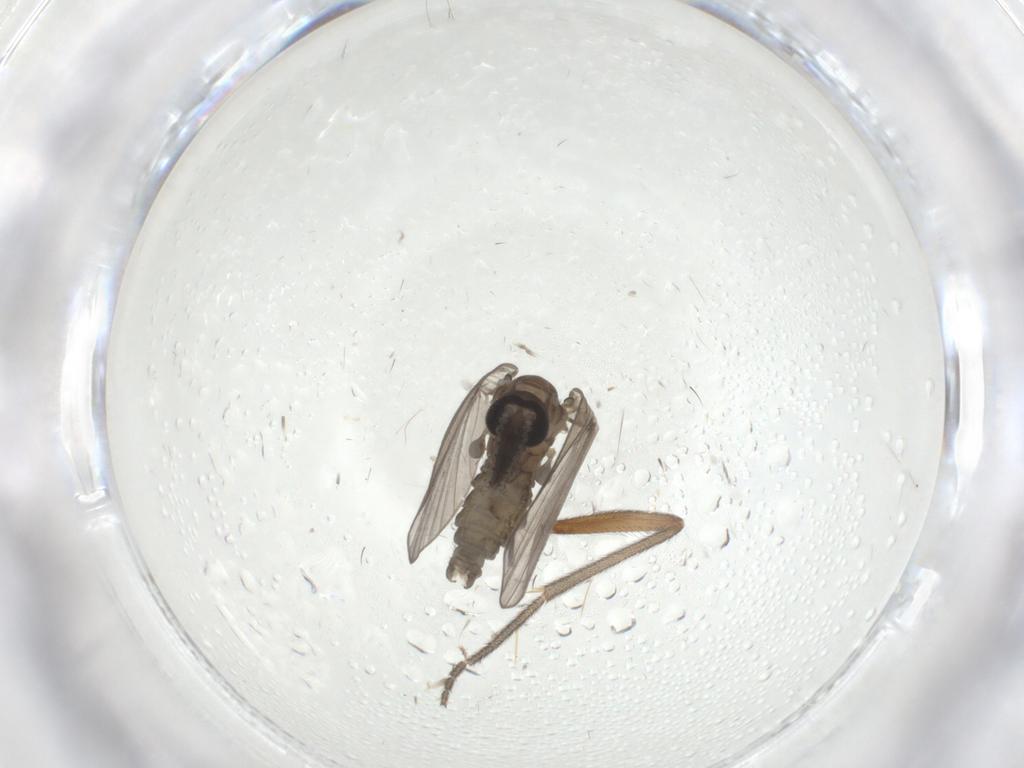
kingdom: Animalia
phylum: Arthropoda
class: Insecta
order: Diptera
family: Psychodidae
